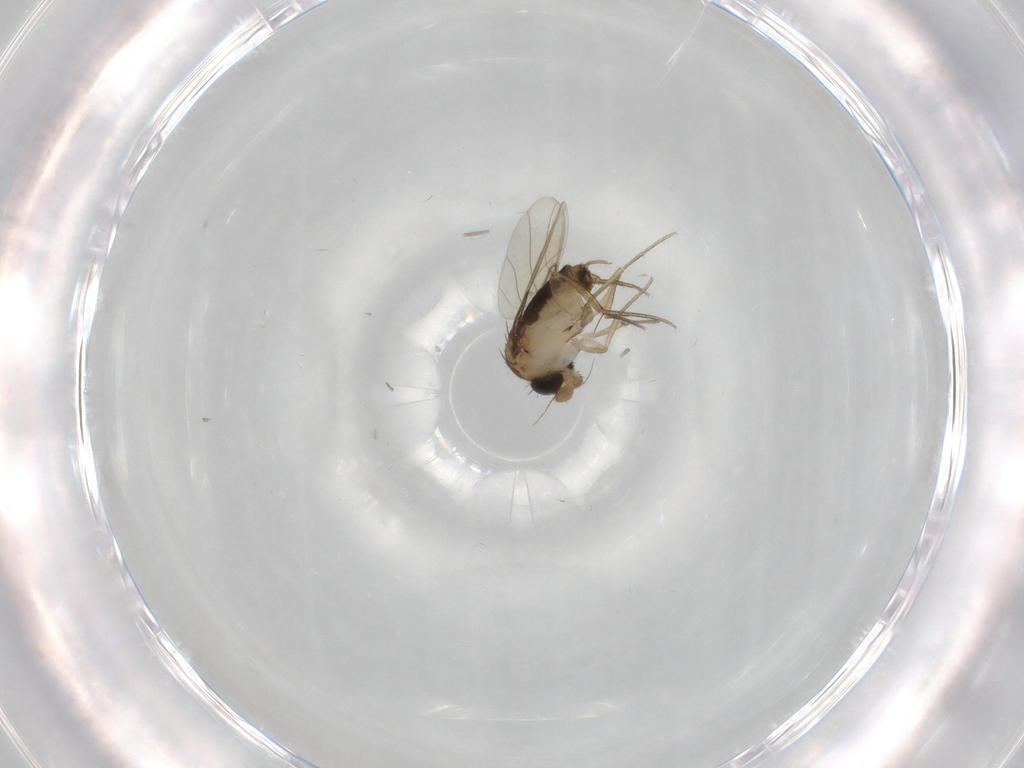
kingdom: Animalia
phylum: Arthropoda
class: Insecta
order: Diptera
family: Phoridae
